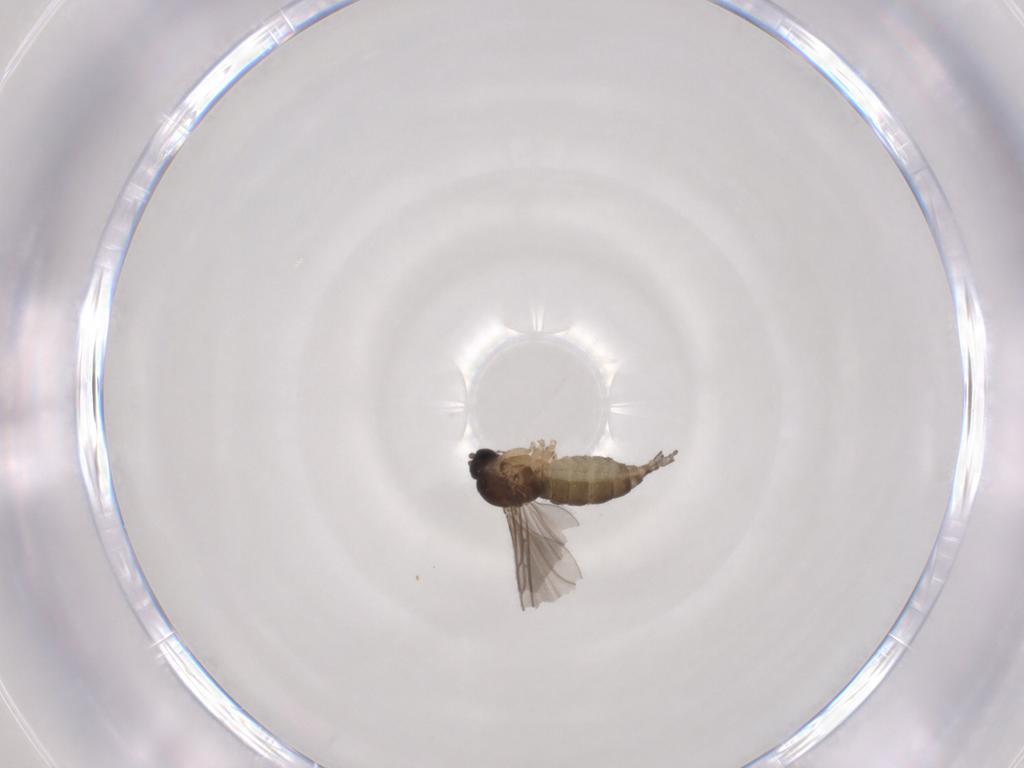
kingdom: Animalia
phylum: Arthropoda
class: Insecta
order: Diptera
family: Sciaridae
